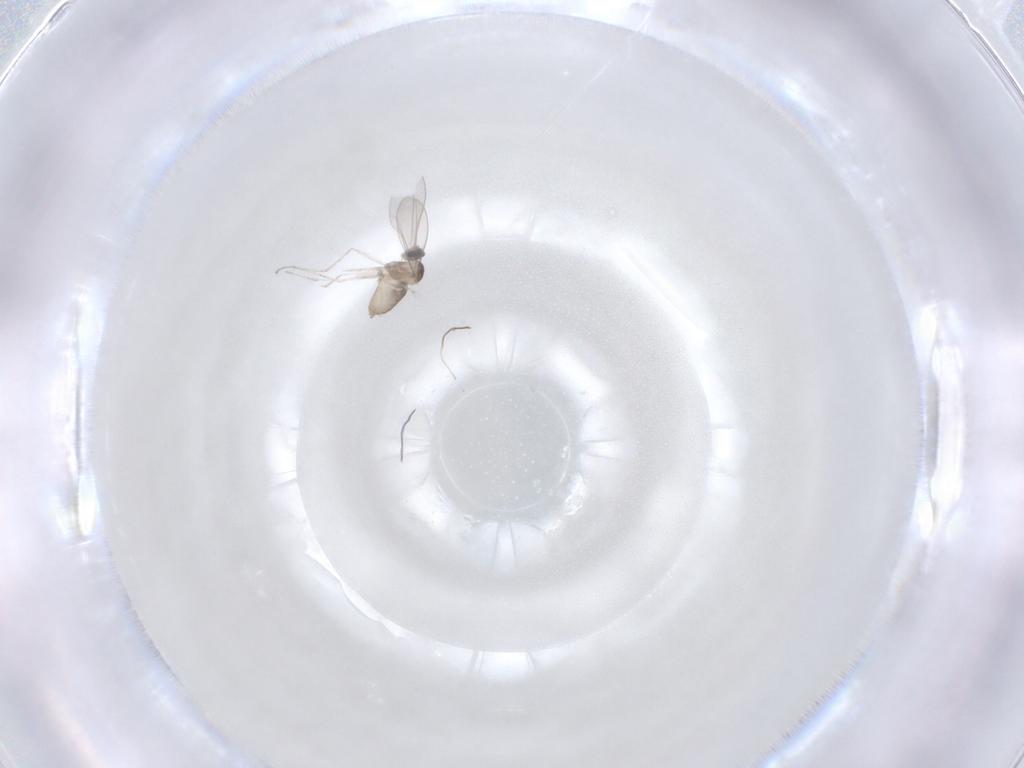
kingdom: Animalia
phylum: Arthropoda
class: Insecta
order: Diptera
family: Cecidomyiidae
